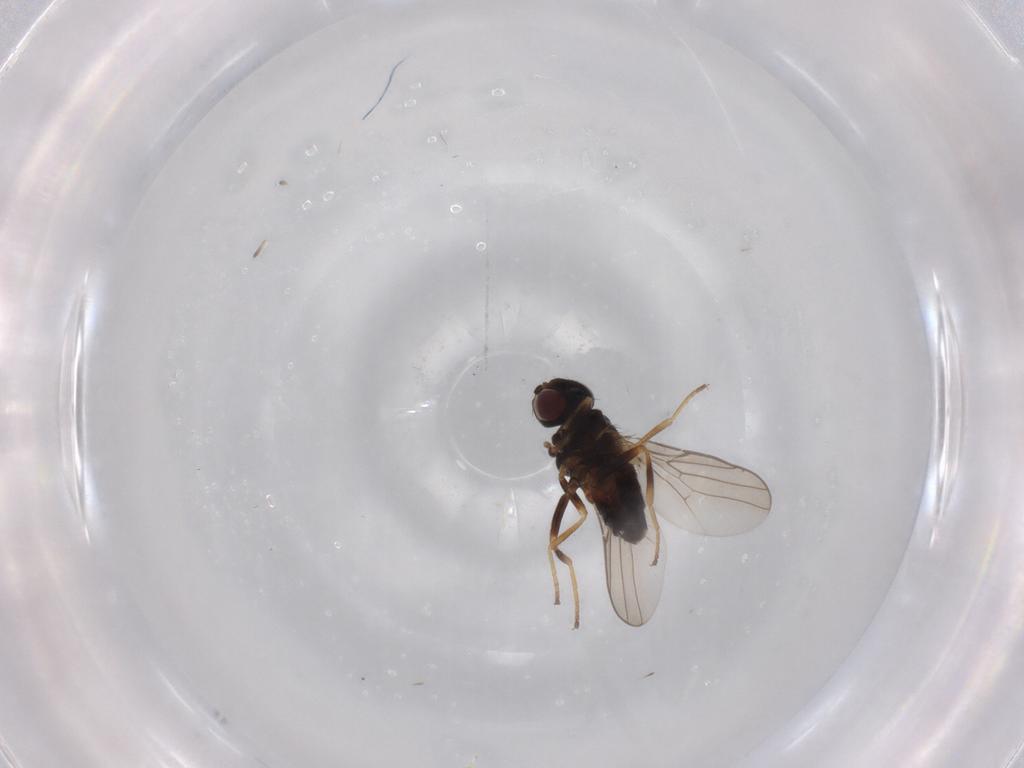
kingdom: Animalia
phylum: Arthropoda
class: Insecta
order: Diptera
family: Chloropidae
